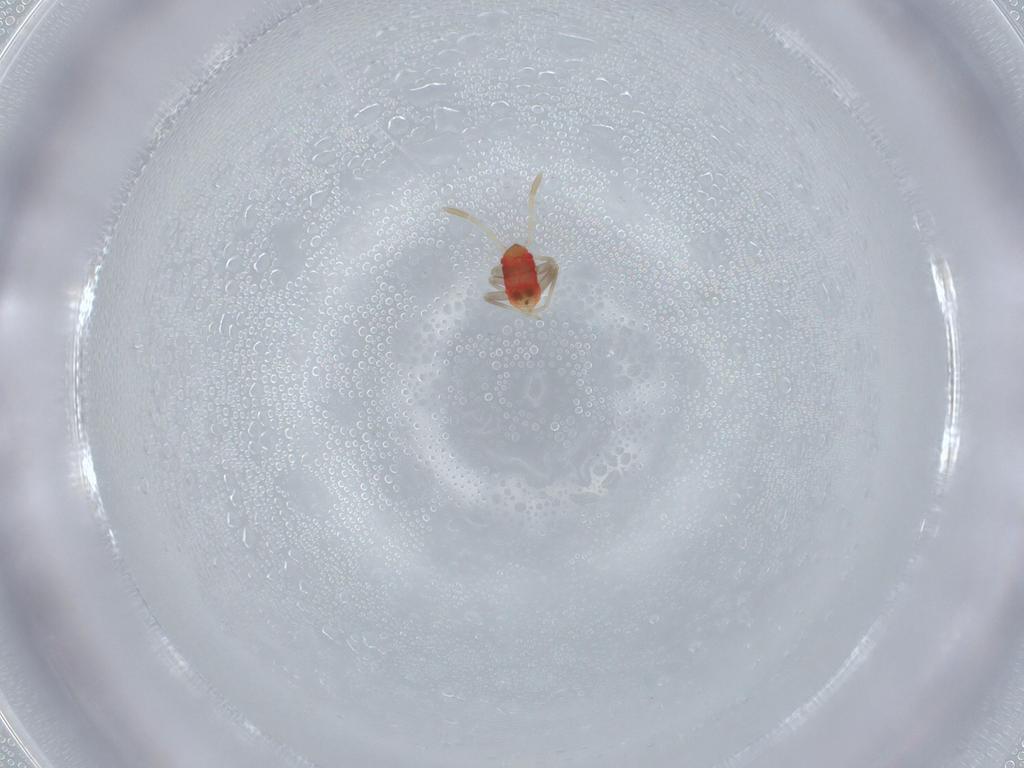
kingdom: Animalia
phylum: Arthropoda
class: Insecta
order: Hemiptera
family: Miridae
